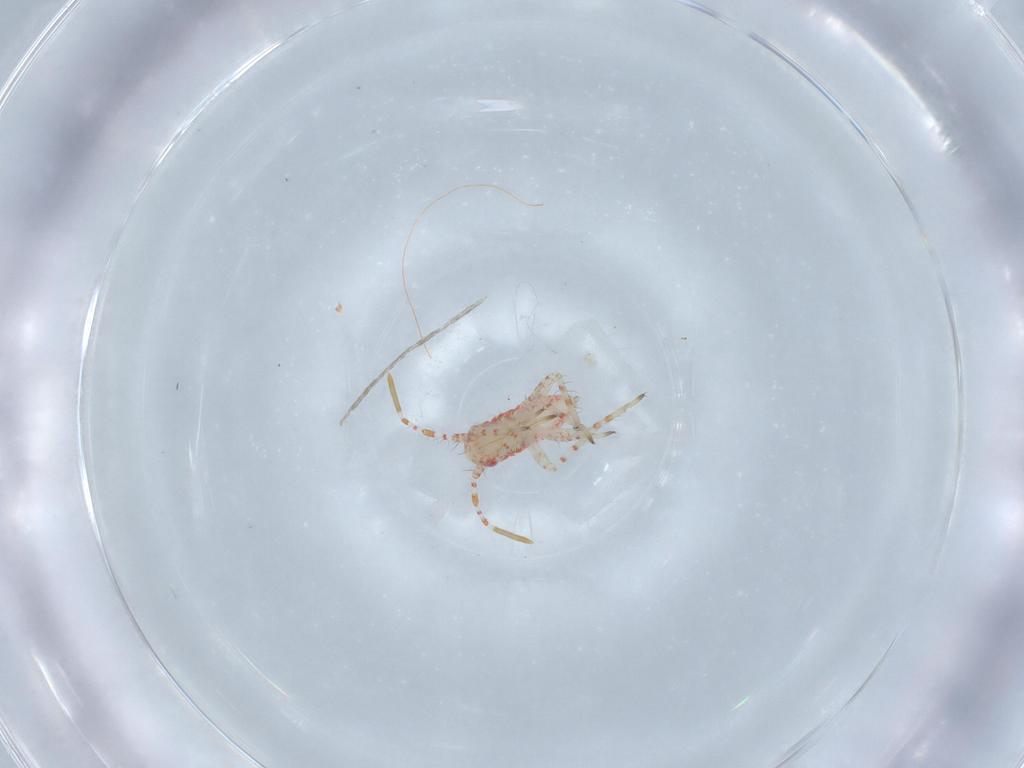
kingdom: Animalia
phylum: Arthropoda
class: Insecta
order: Hemiptera
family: Miridae
